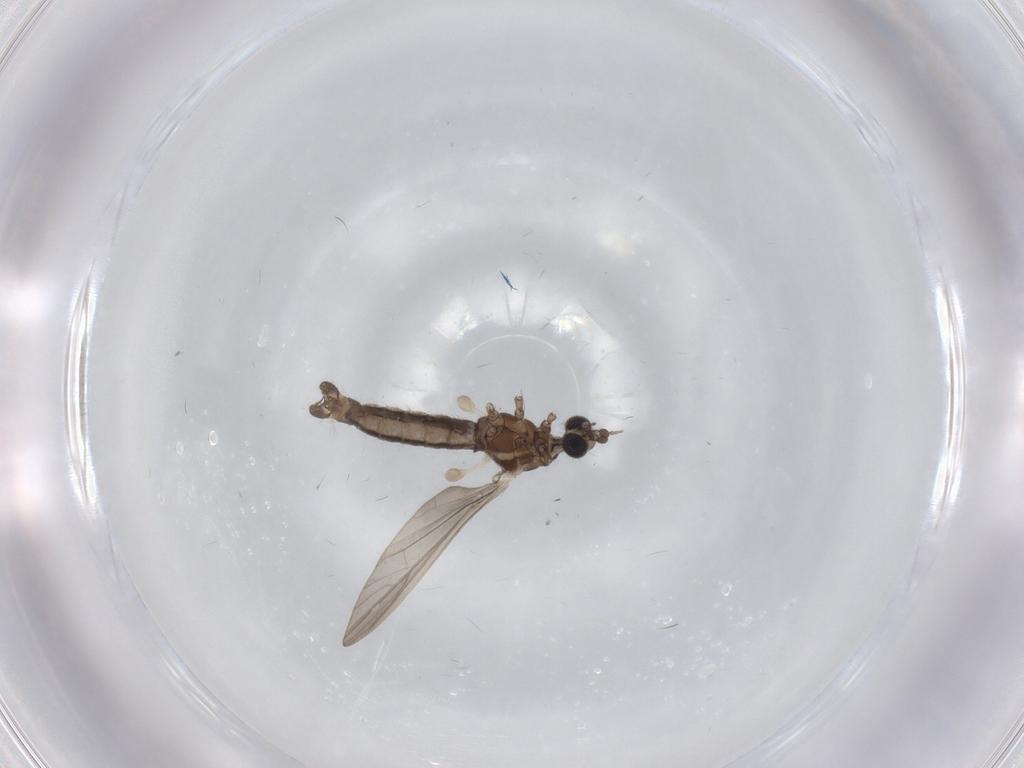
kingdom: Animalia
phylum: Arthropoda
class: Insecta
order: Diptera
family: Limoniidae
